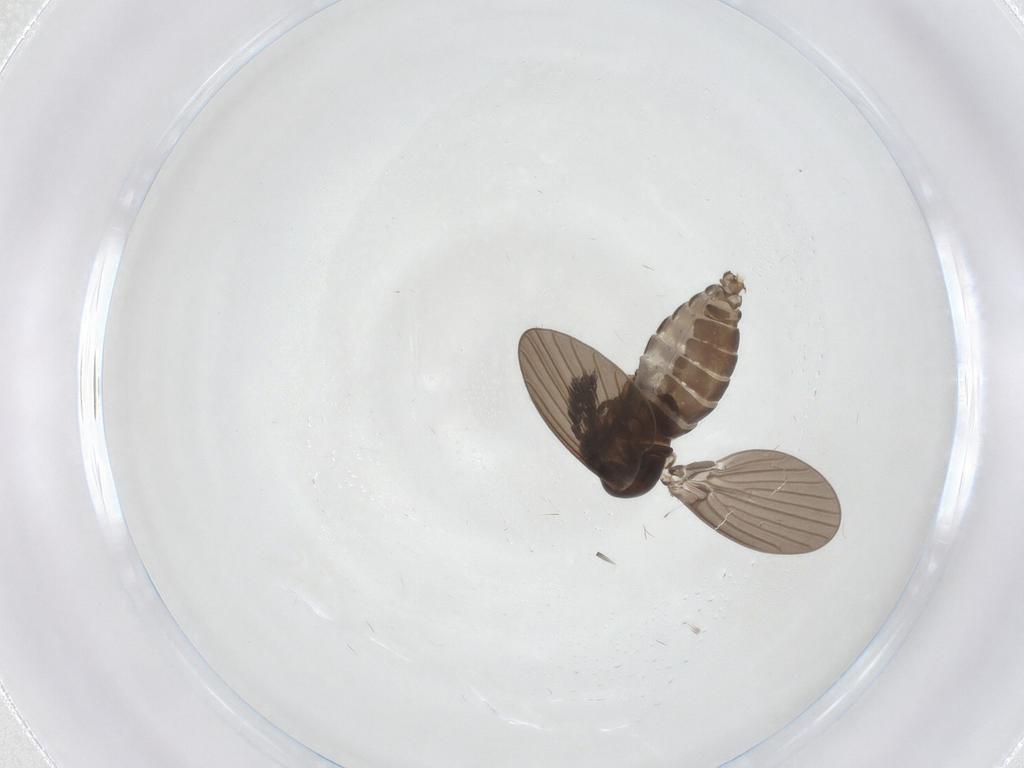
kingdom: Animalia
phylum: Arthropoda
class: Insecta
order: Diptera
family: Psychodidae
